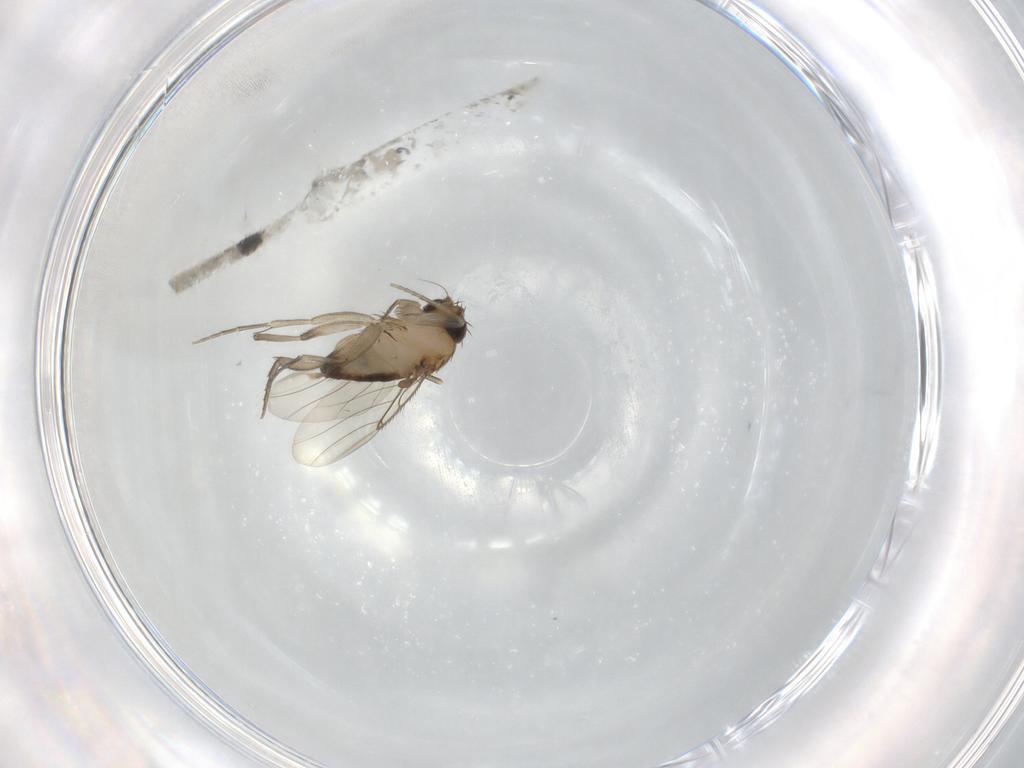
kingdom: Animalia
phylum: Arthropoda
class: Insecta
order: Diptera
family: Phoridae
